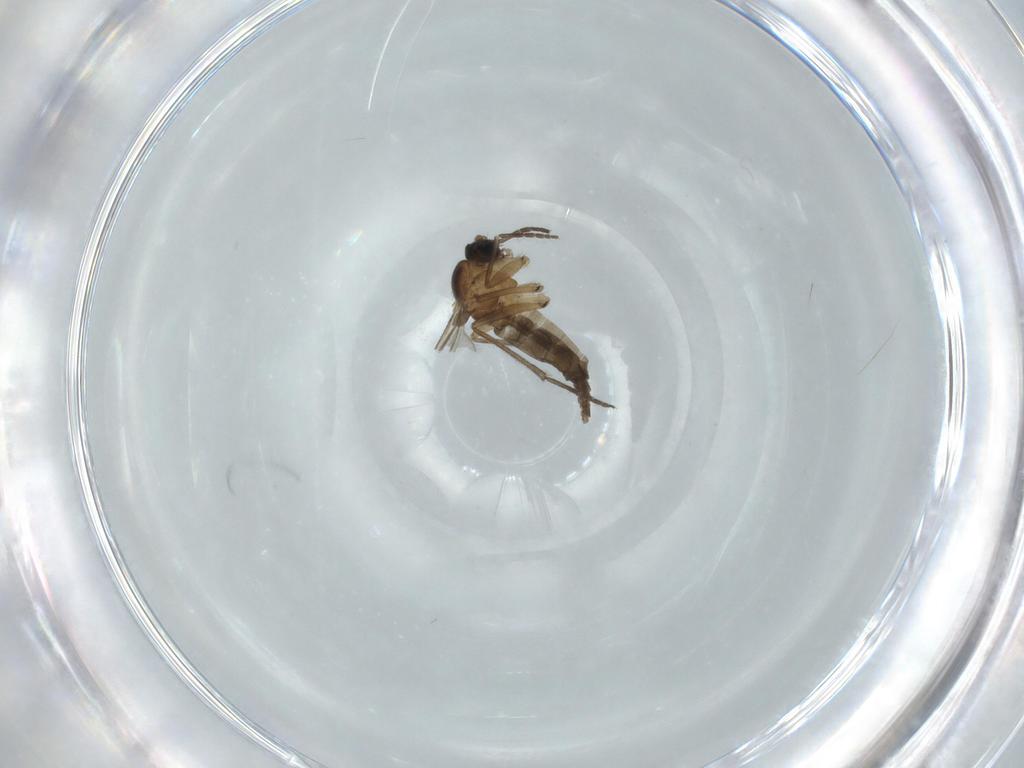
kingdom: Animalia
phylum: Arthropoda
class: Insecta
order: Diptera
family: Sciaridae
